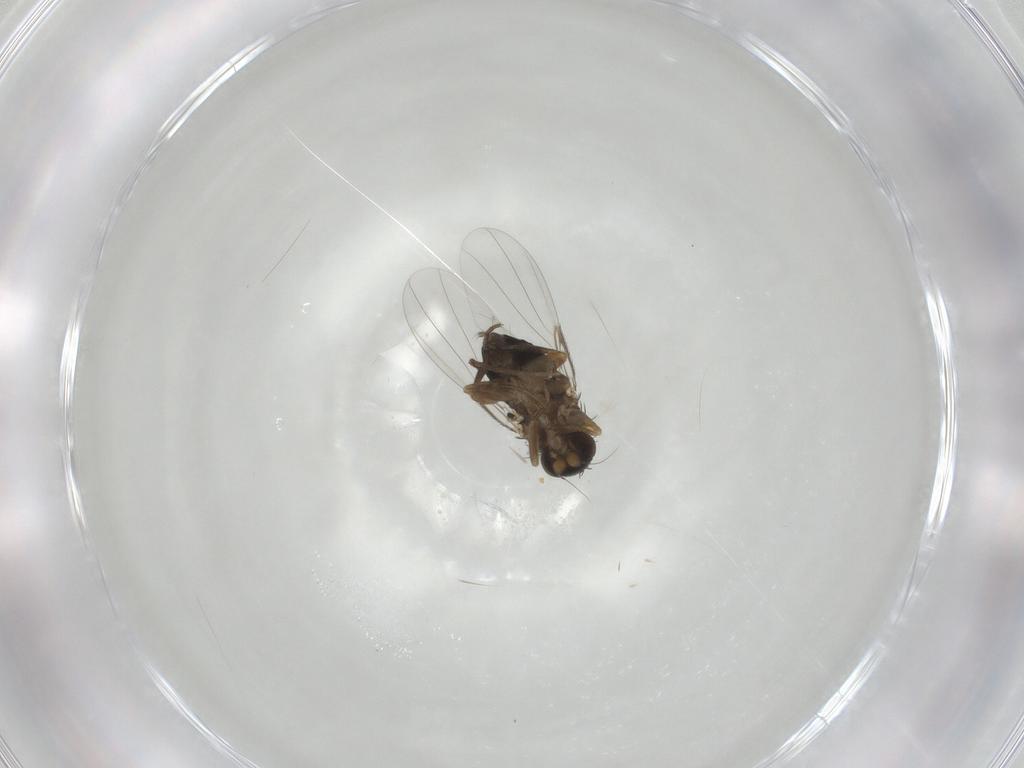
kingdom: Animalia
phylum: Arthropoda
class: Insecta
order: Diptera
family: Phoridae
